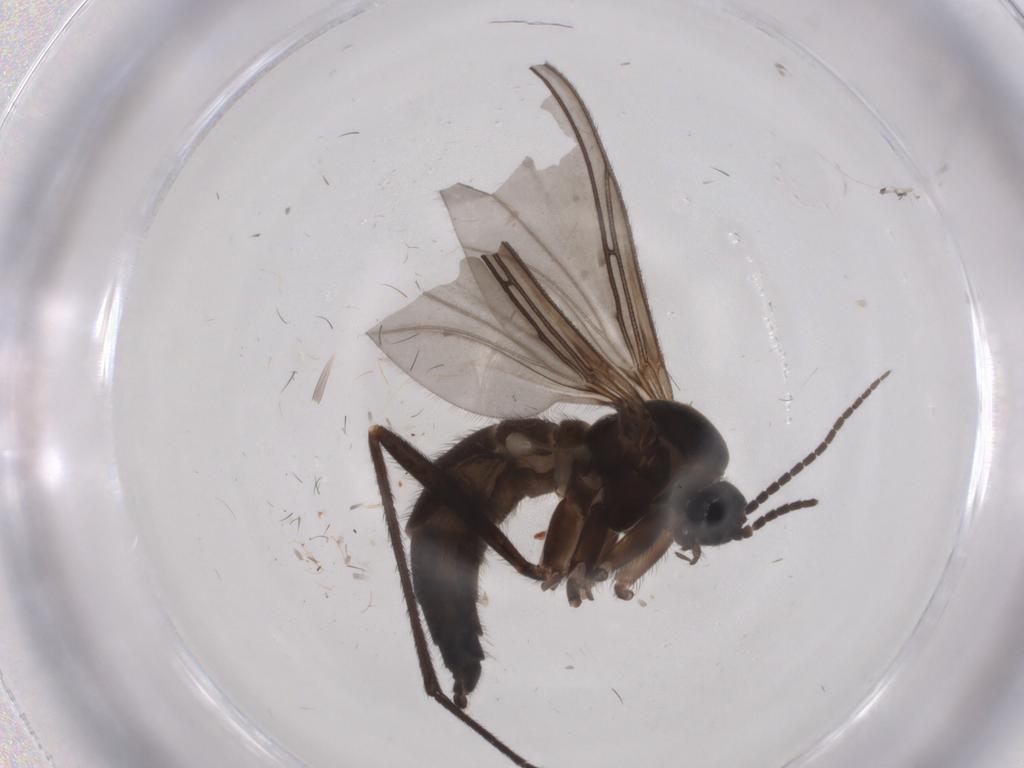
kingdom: Animalia
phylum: Arthropoda
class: Insecta
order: Diptera
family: Sciaridae
